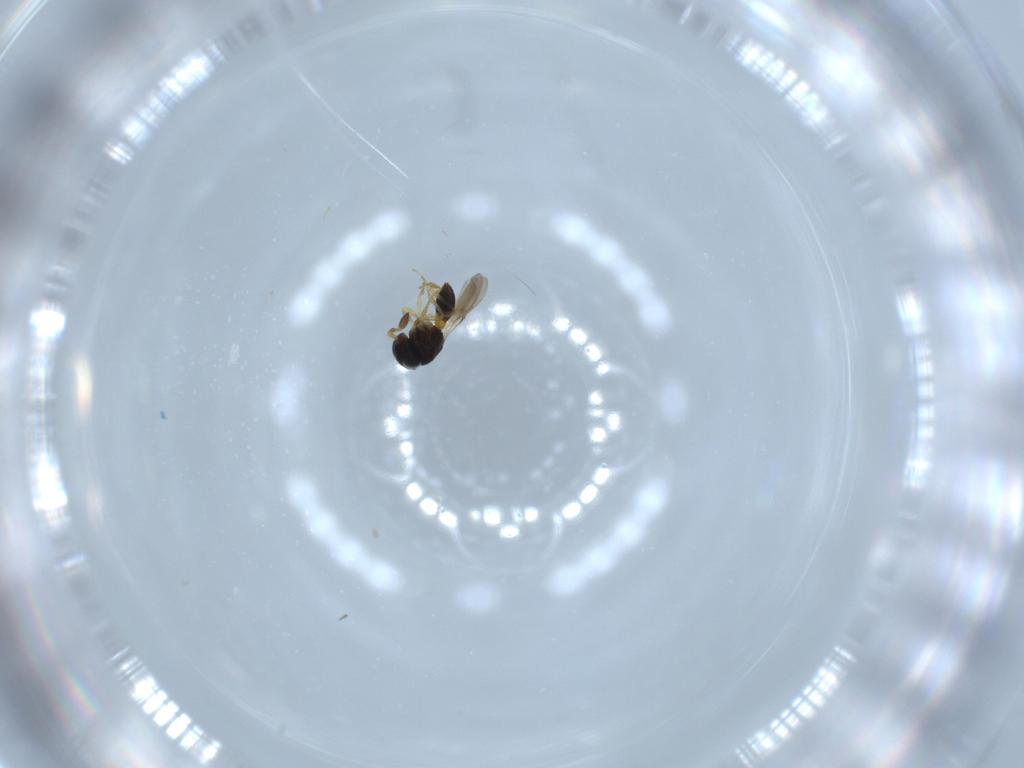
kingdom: Animalia
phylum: Arthropoda
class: Insecta
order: Hymenoptera
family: Scelionidae
